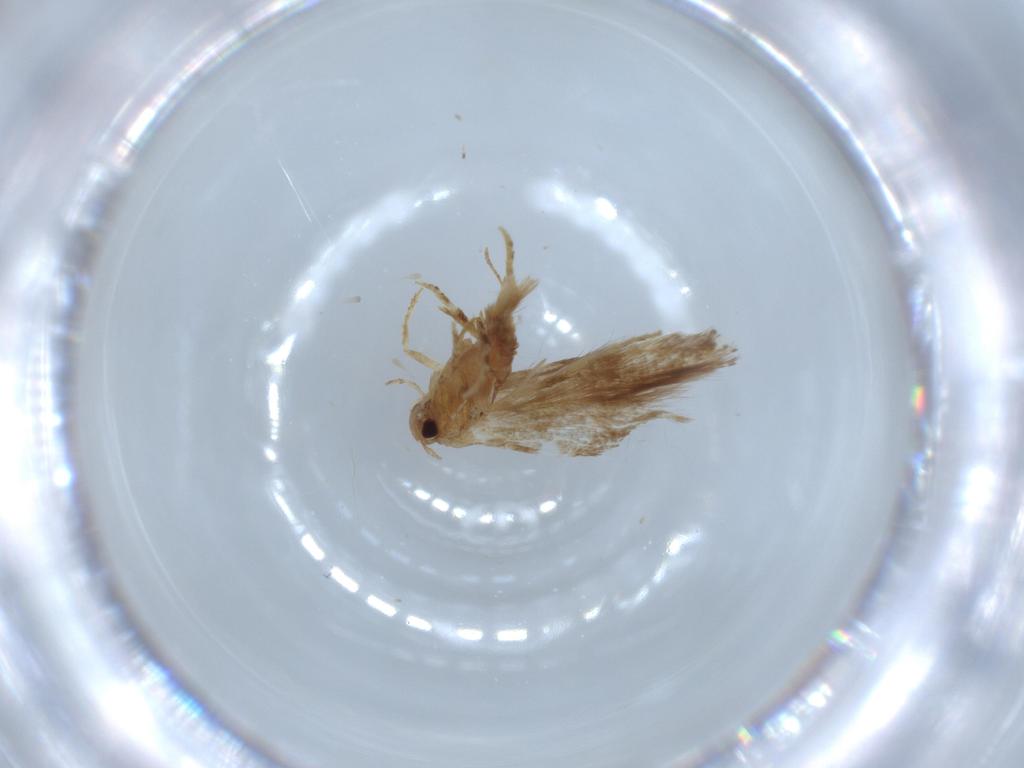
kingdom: Animalia
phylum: Arthropoda
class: Insecta
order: Lepidoptera
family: Elachistidae
